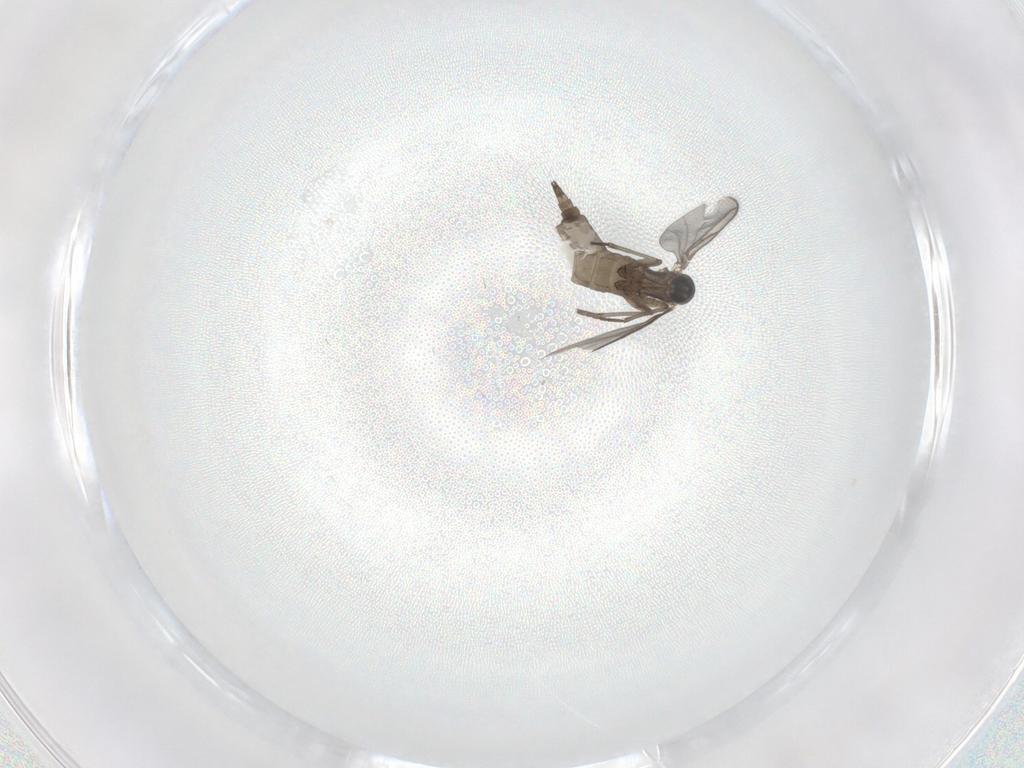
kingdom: Animalia
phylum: Arthropoda
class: Insecta
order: Diptera
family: Sciaridae
